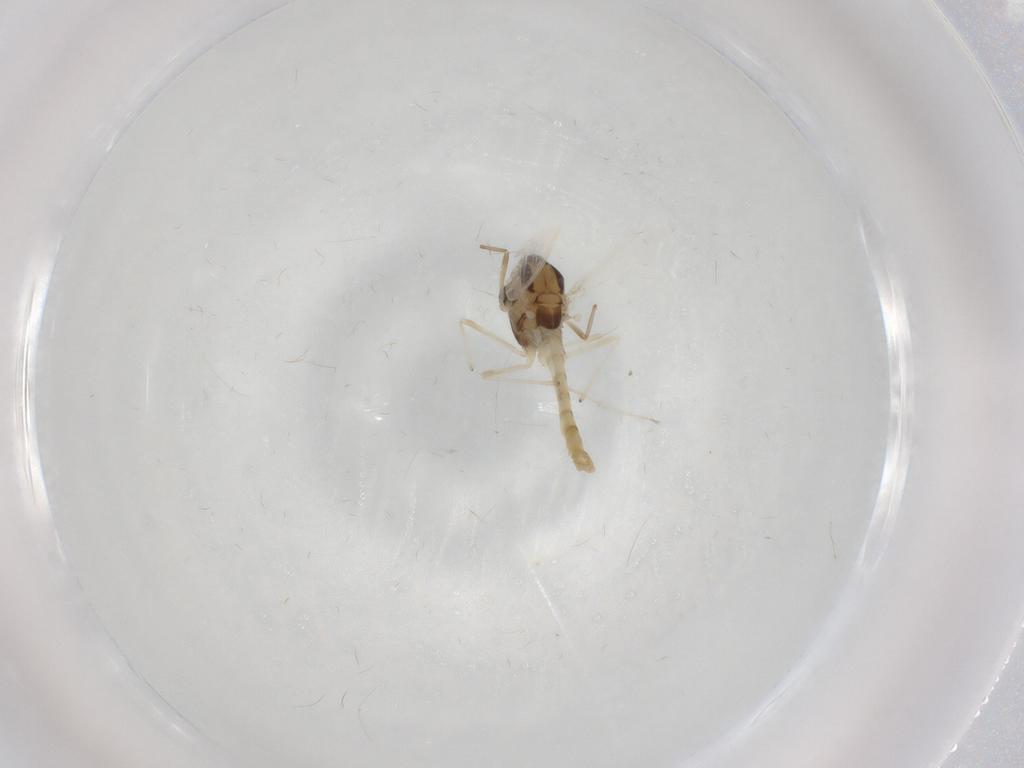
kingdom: Animalia
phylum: Arthropoda
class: Insecta
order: Diptera
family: Chironomidae
